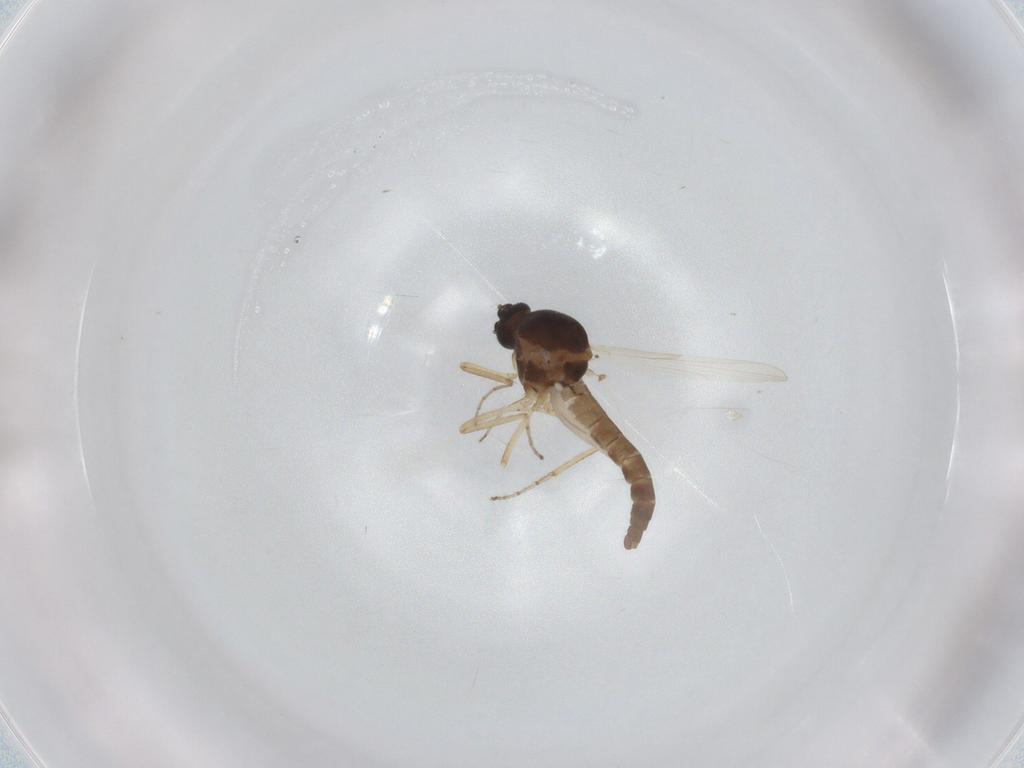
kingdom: Animalia
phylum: Arthropoda
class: Insecta
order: Diptera
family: Ceratopogonidae
